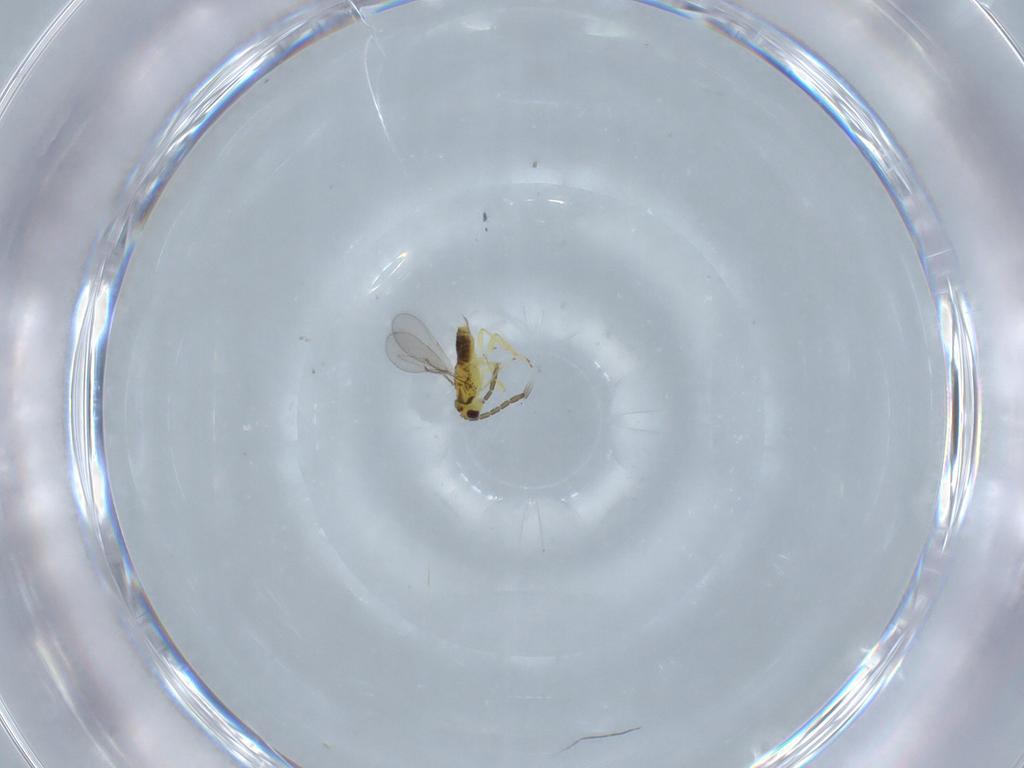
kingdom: Animalia
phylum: Arthropoda
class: Insecta
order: Hymenoptera
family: Aphelinidae
